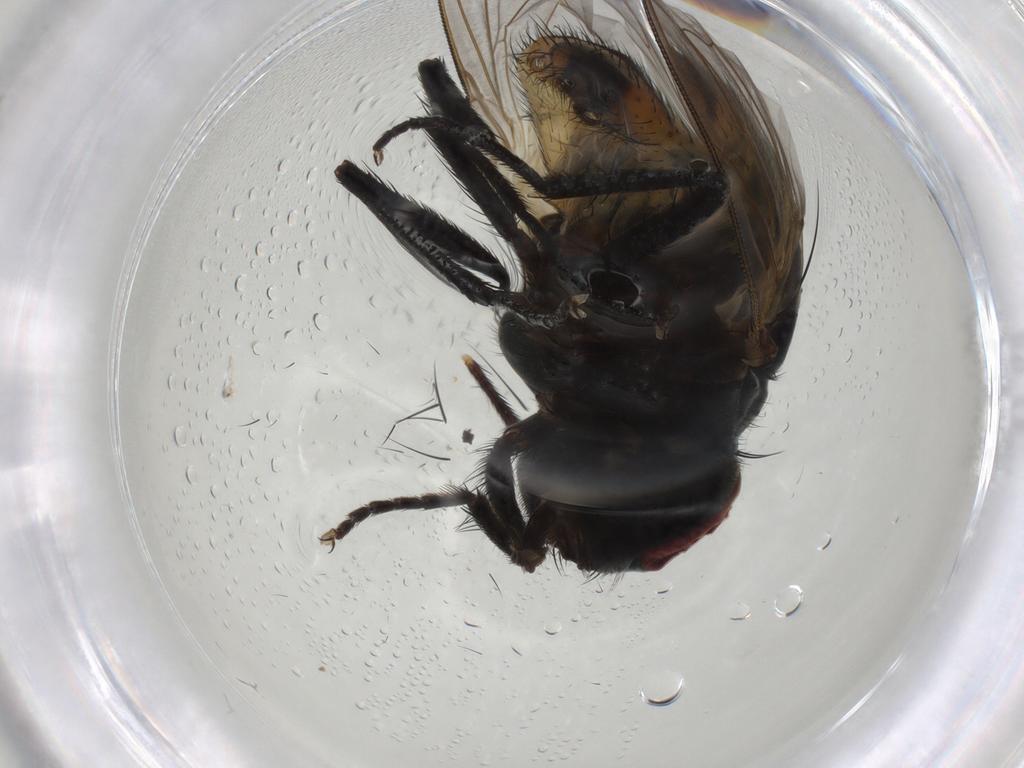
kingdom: Animalia
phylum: Arthropoda
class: Insecta
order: Diptera
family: Muscidae
